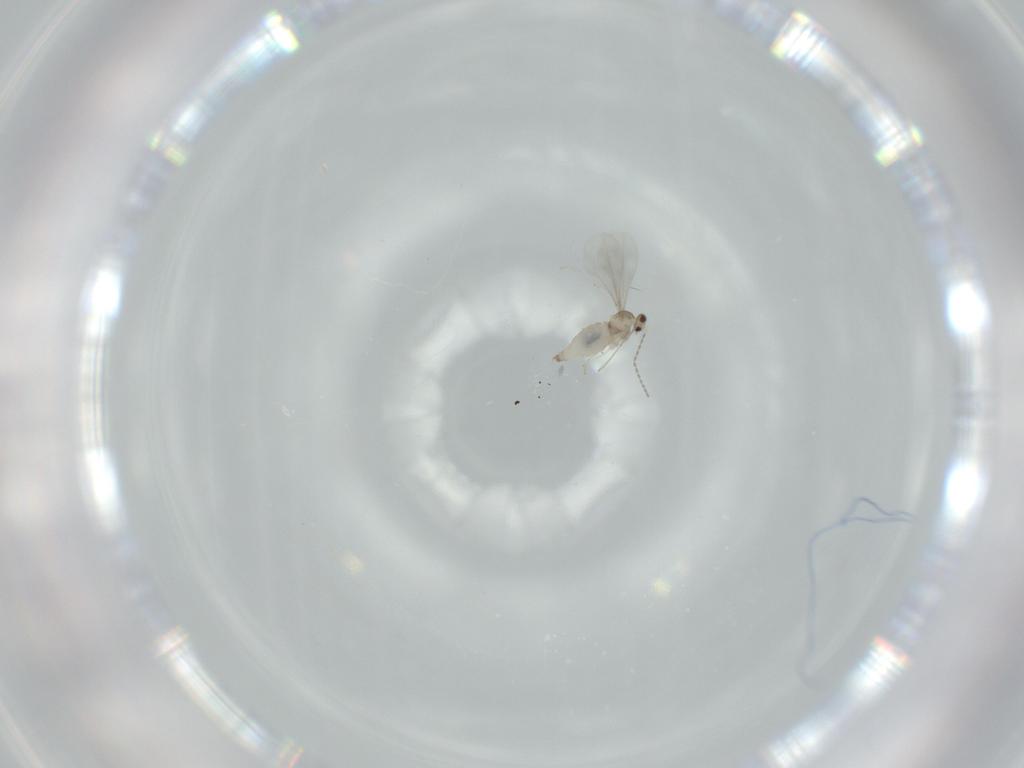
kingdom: Animalia
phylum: Arthropoda
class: Insecta
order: Diptera
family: Cecidomyiidae
